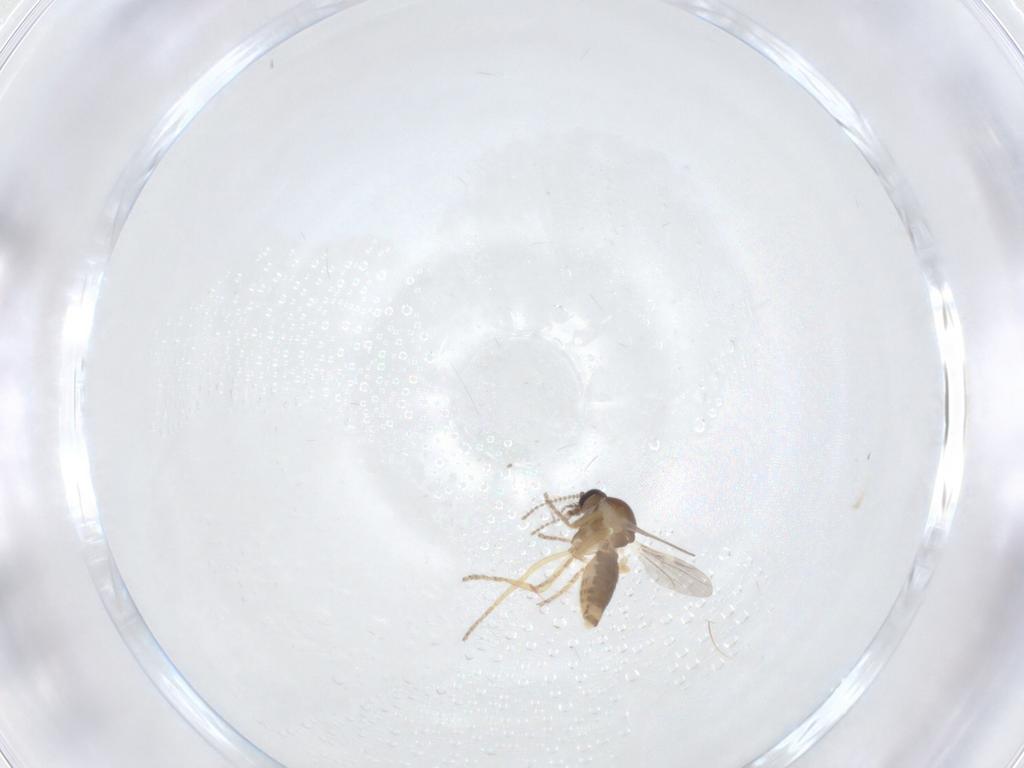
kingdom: Animalia
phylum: Arthropoda
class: Insecta
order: Diptera
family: Ceratopogonidae
